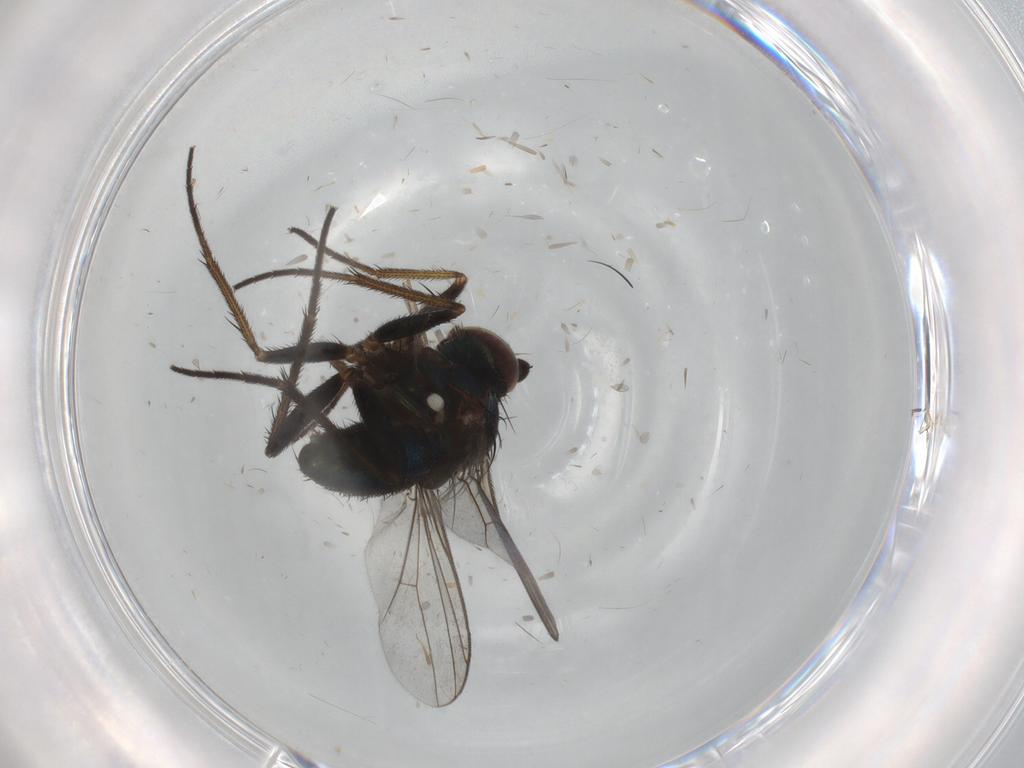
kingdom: Animalia
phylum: Arthropoda
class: Insecta
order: Diptera
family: Dolichopodidae
